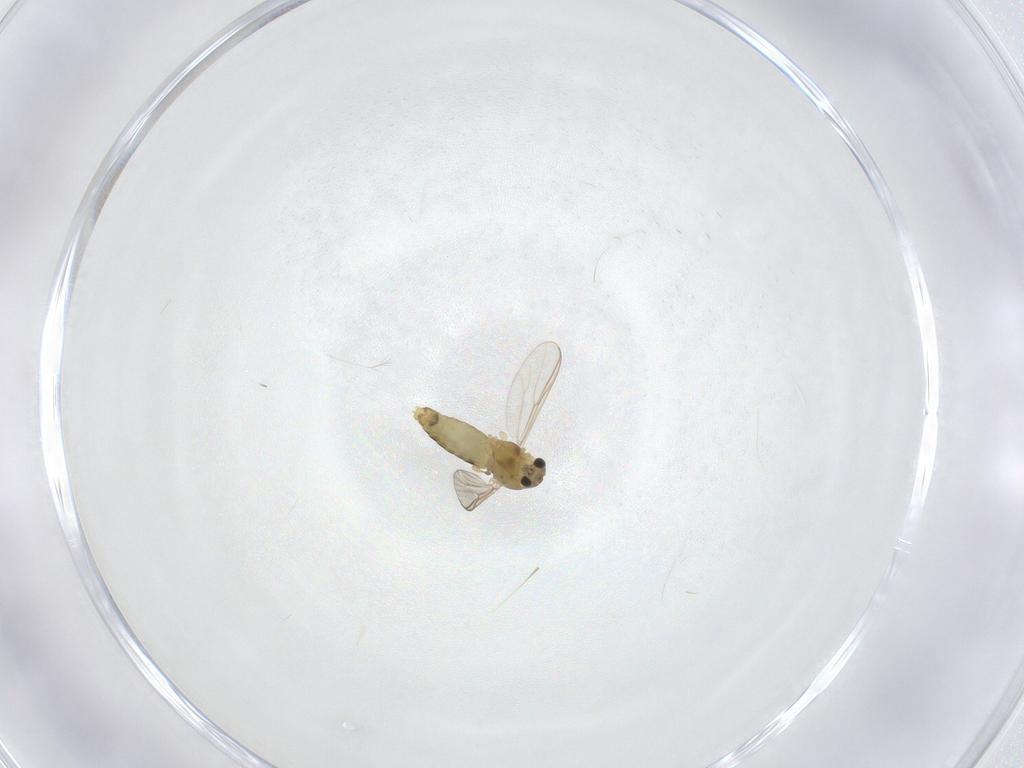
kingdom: Animalia
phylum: Arthropoda
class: Insecta
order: Diptera
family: Chironomidae
